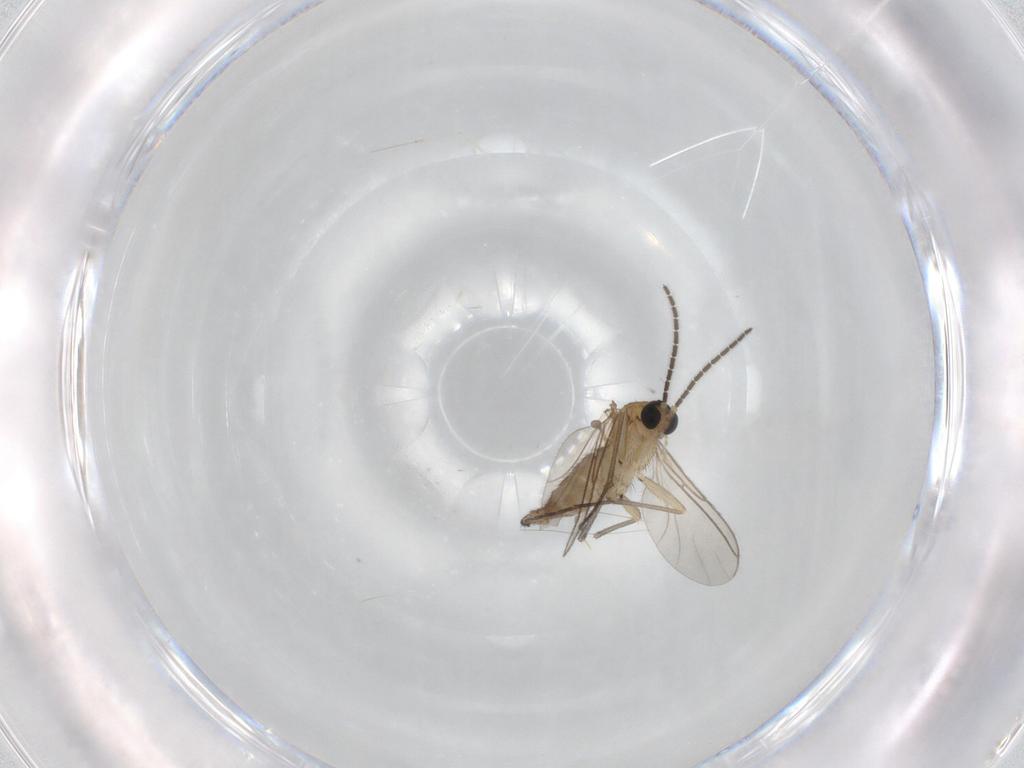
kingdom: Animalia
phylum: Arthropoda
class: Insecta
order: Diptera
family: Cecidomyiidae
